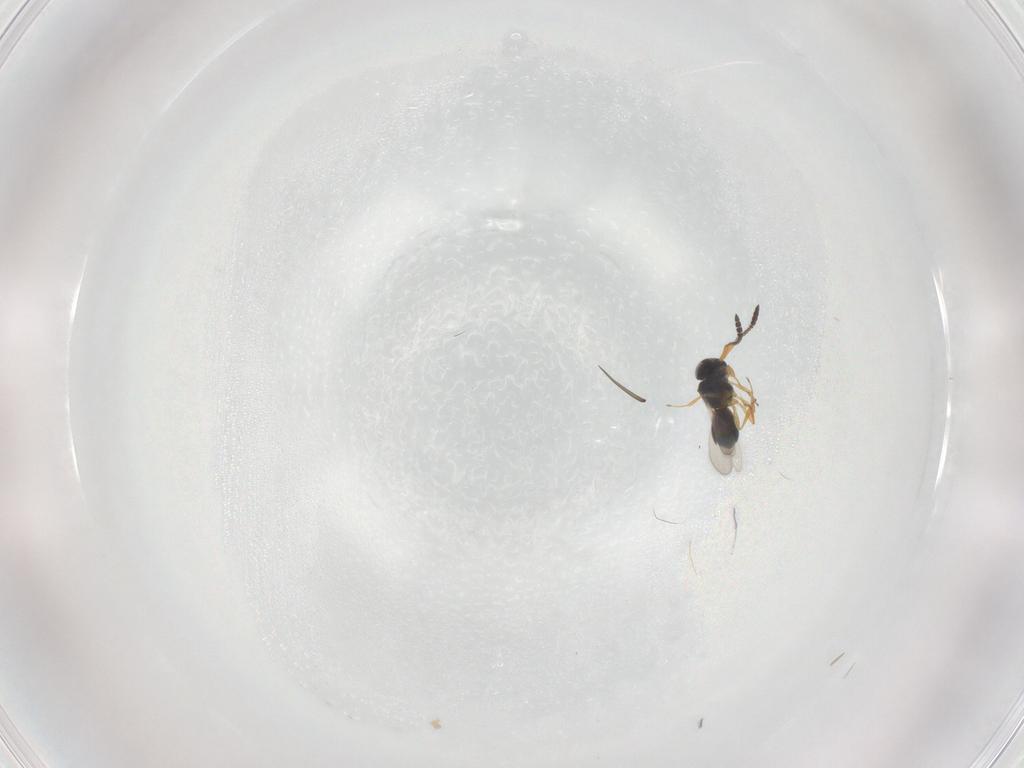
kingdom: Animalia
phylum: Arthropoda
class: Insecta
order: Hymenoptera
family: Scelionidae
